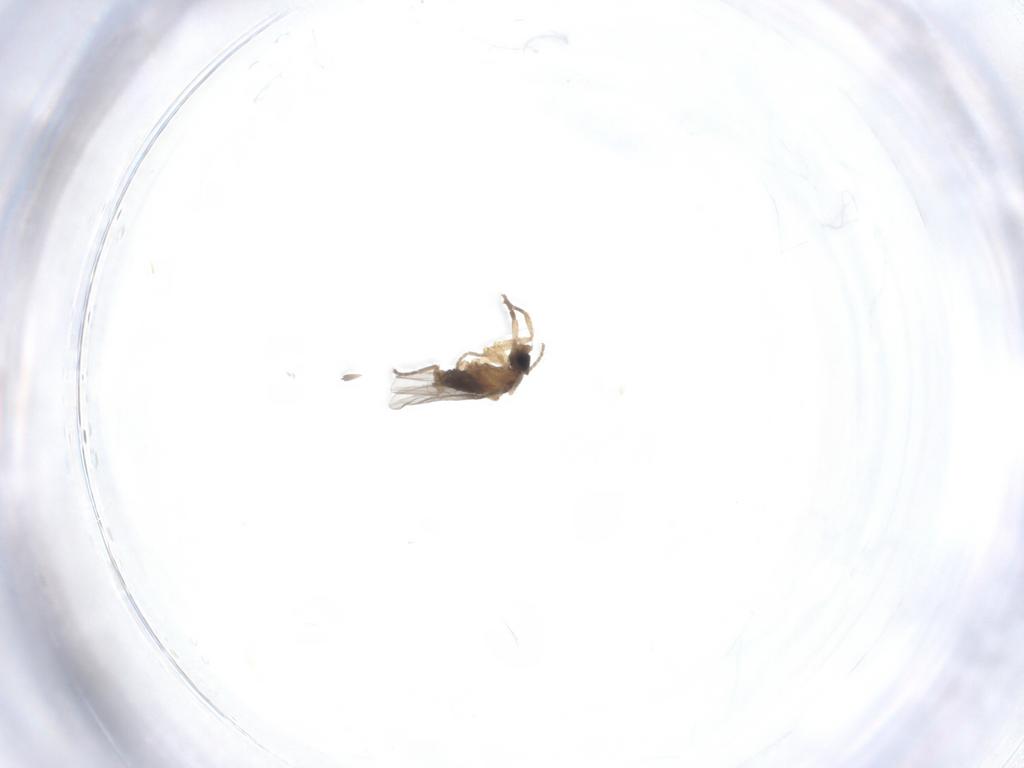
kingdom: Animalia
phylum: Arthropoda
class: Insecta
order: Diptera
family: Phoridae
